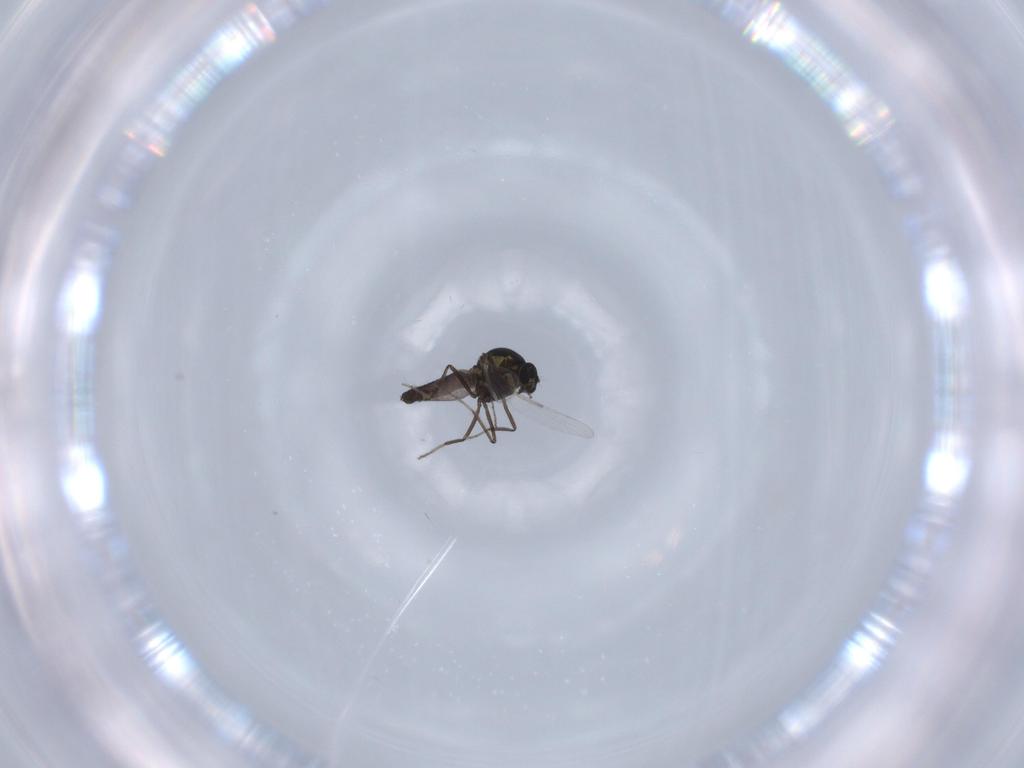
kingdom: Animalia
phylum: Arthropoda
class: Insecta
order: Diptera
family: Ceratopogonidae
